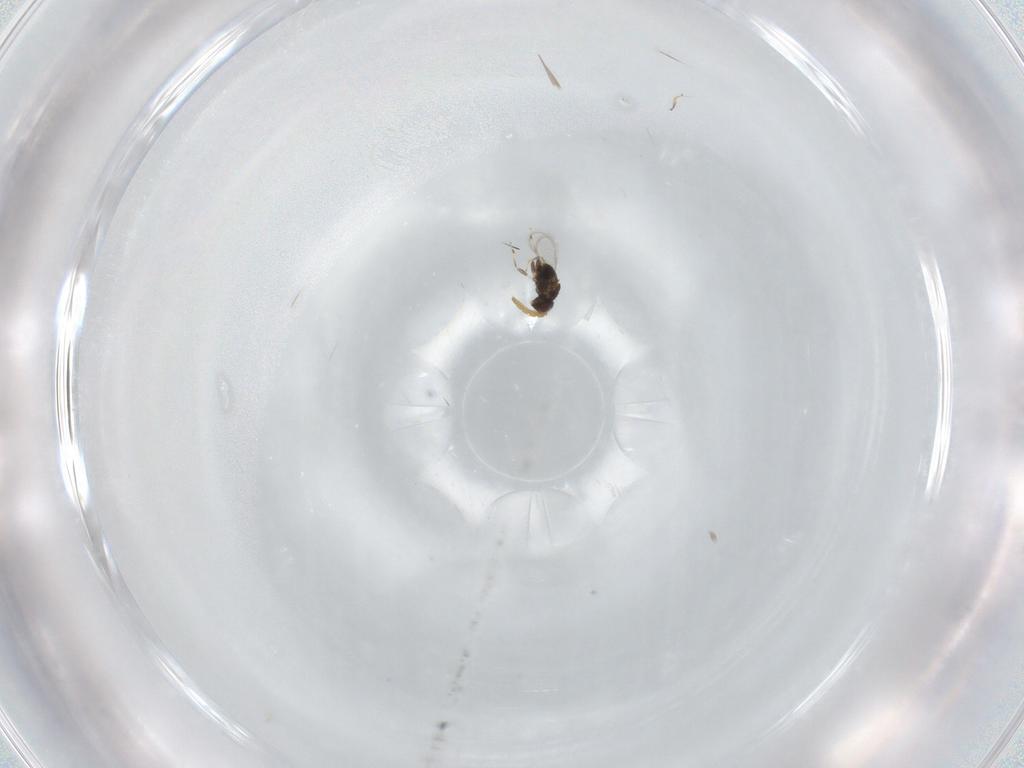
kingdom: Animalia
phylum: Arthropoda
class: Insecta
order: Hymenoptera
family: Aphelinidae
